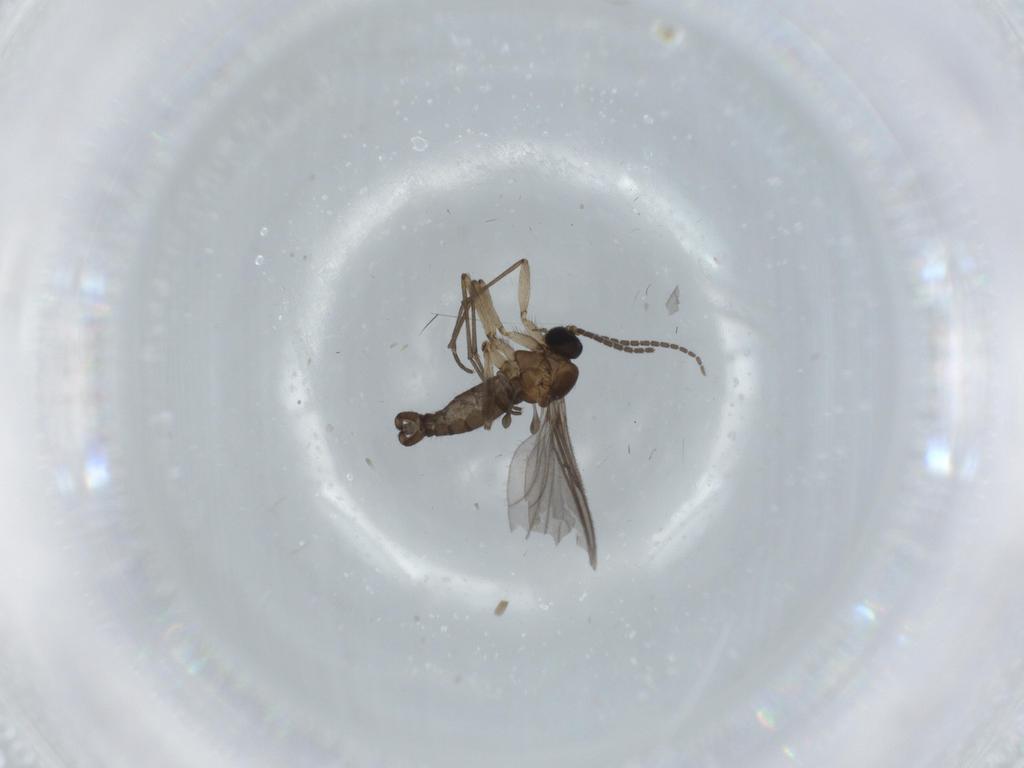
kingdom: Animalia
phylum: Arthropoda
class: Insecta
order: Diptera
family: Sciaridae
